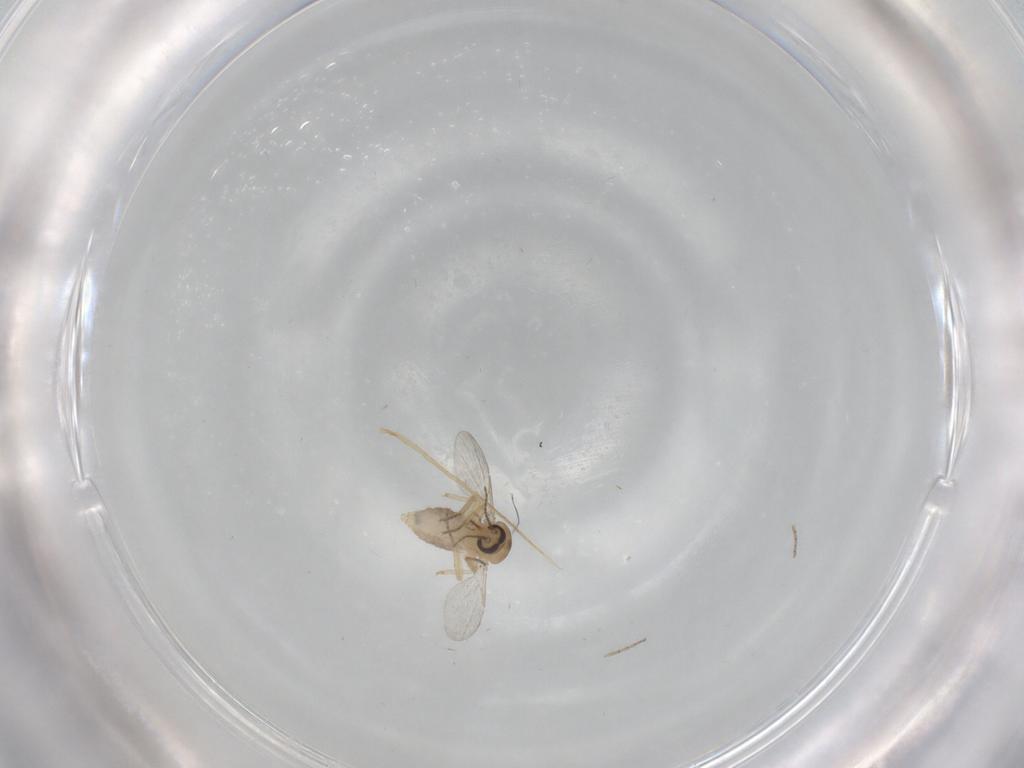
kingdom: Animalia
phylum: Arthropoda
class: Insecta
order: Diptera
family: Ceratopogonidae
